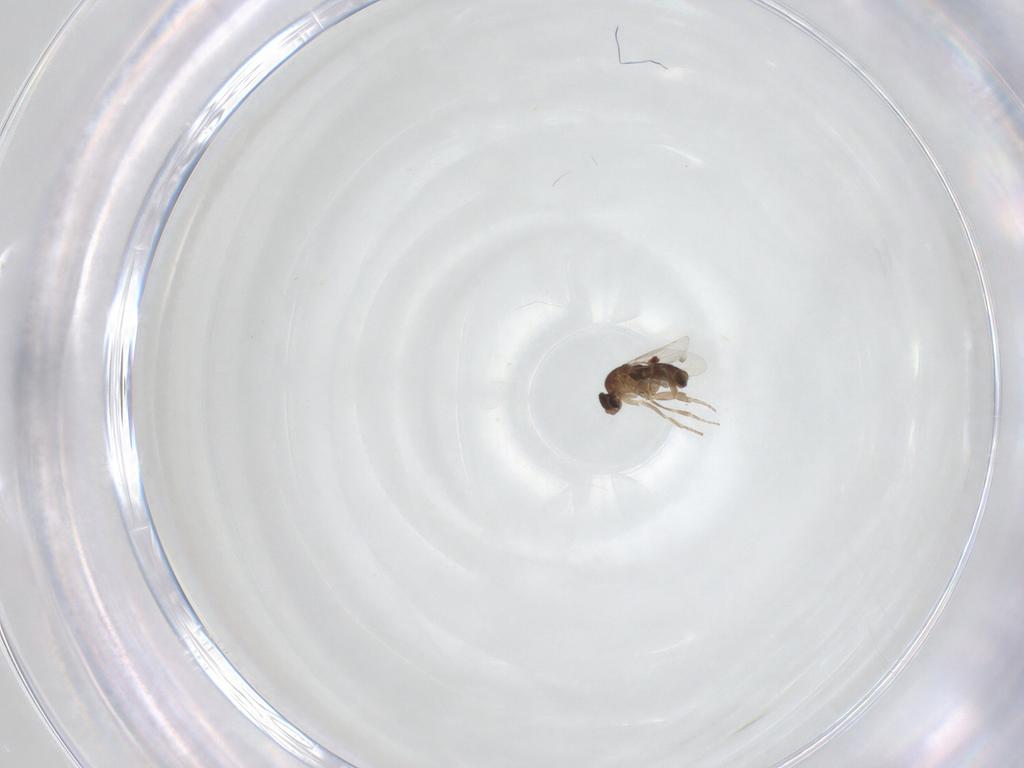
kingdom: Animalia
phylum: Arthropoda
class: Insecta
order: Diptera
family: Phoridae
